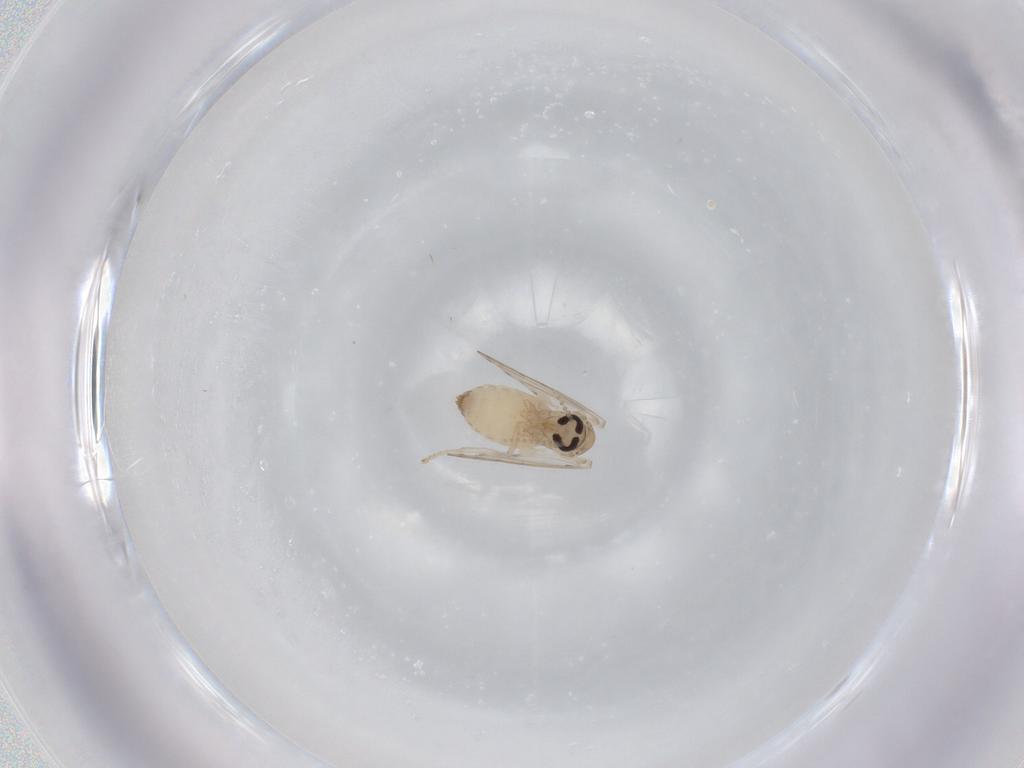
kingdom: Animalia
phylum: Arthropoda
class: Insecta
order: Diptera
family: Psychodidae
